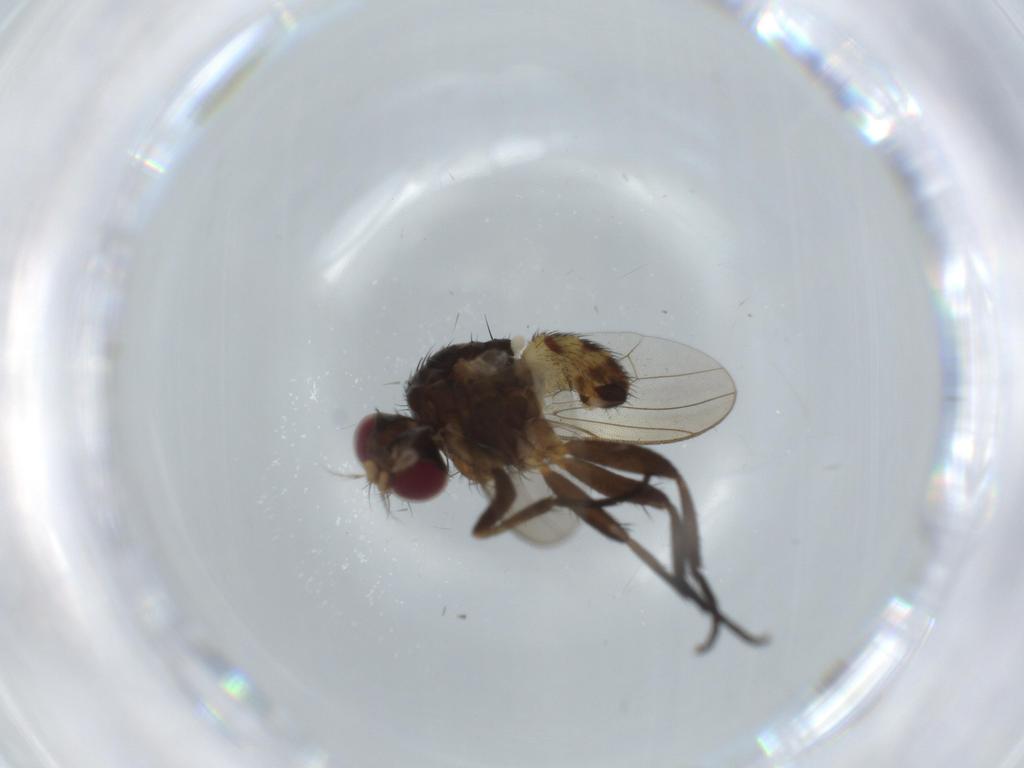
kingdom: Animalia
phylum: Arthropoda
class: Insecta
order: Diptera
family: Anthomyiidae
